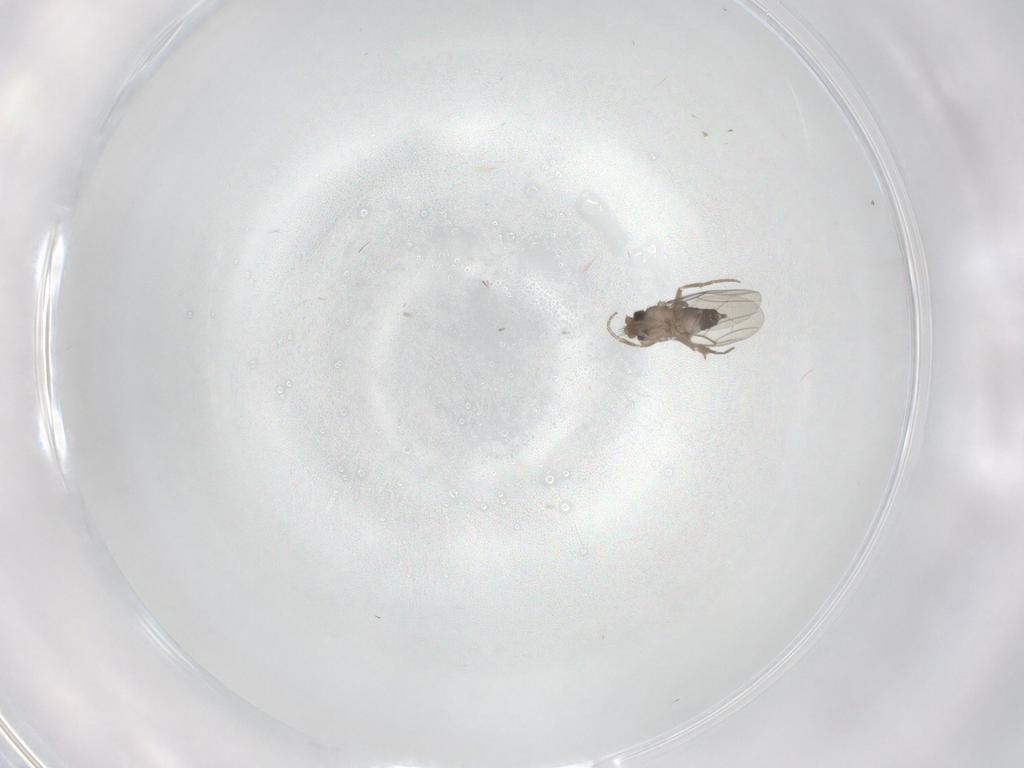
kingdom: Animalia
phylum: Arthropoda
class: Insecta
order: Diptera
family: Phoridae
